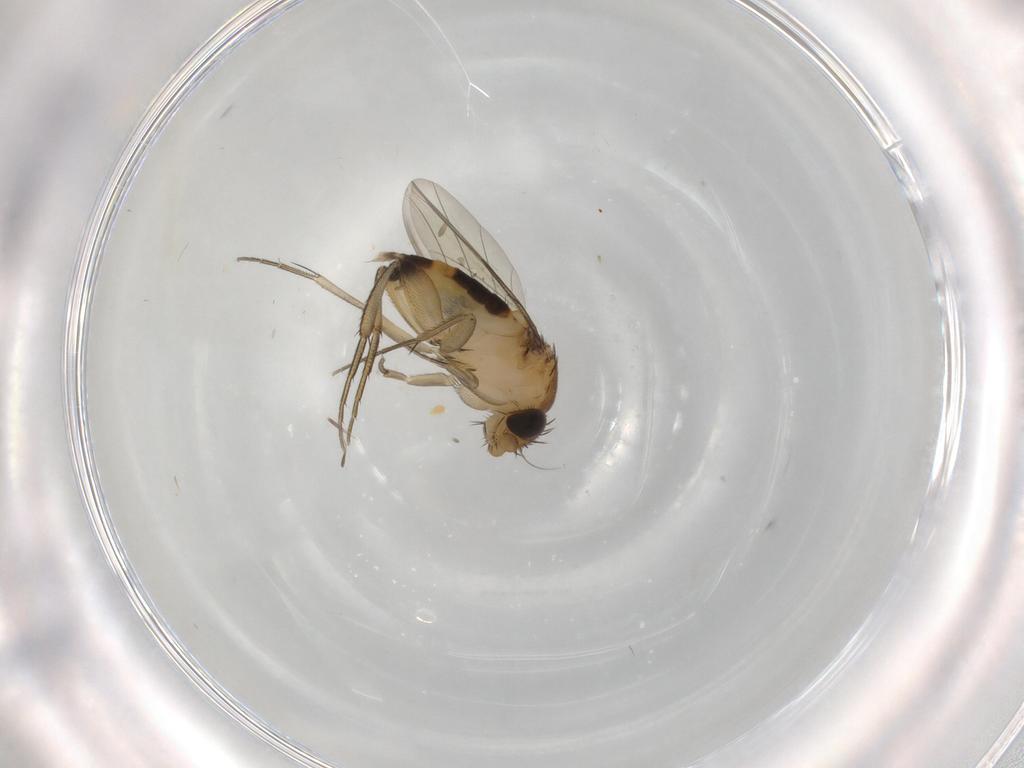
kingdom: Animalia
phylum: Arthropoda
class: Insecta
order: Diptera
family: Phoridae
